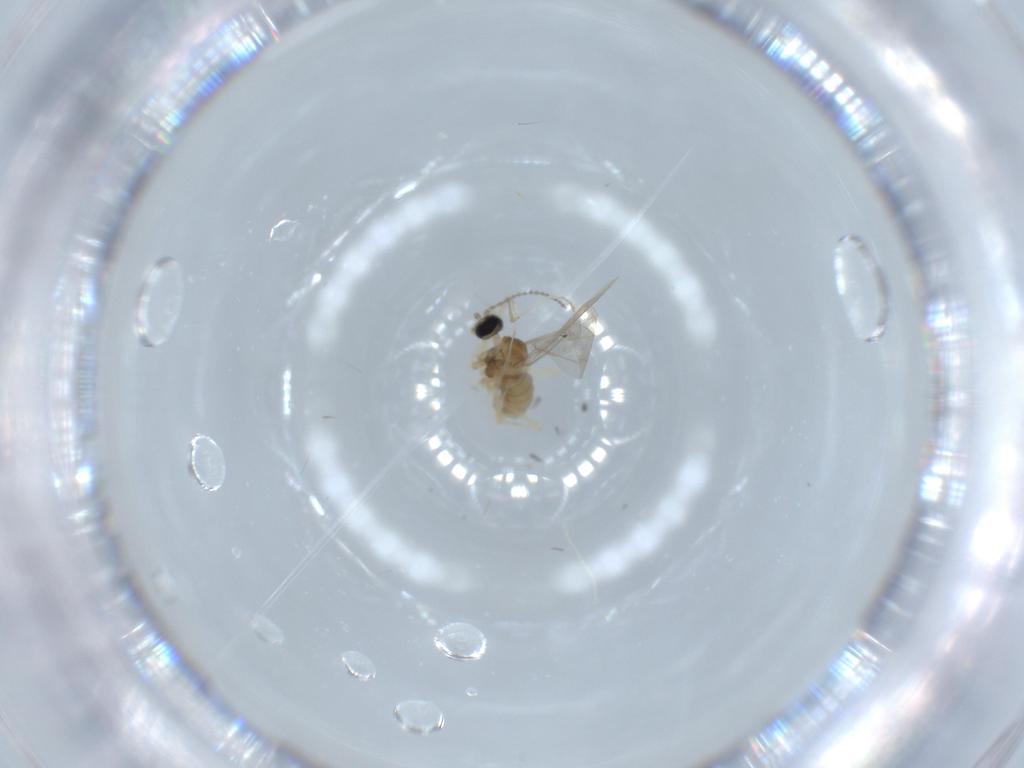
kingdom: Animalia
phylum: Arthropoda
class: Insecta
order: Diptera
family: Cecidomyiidae
